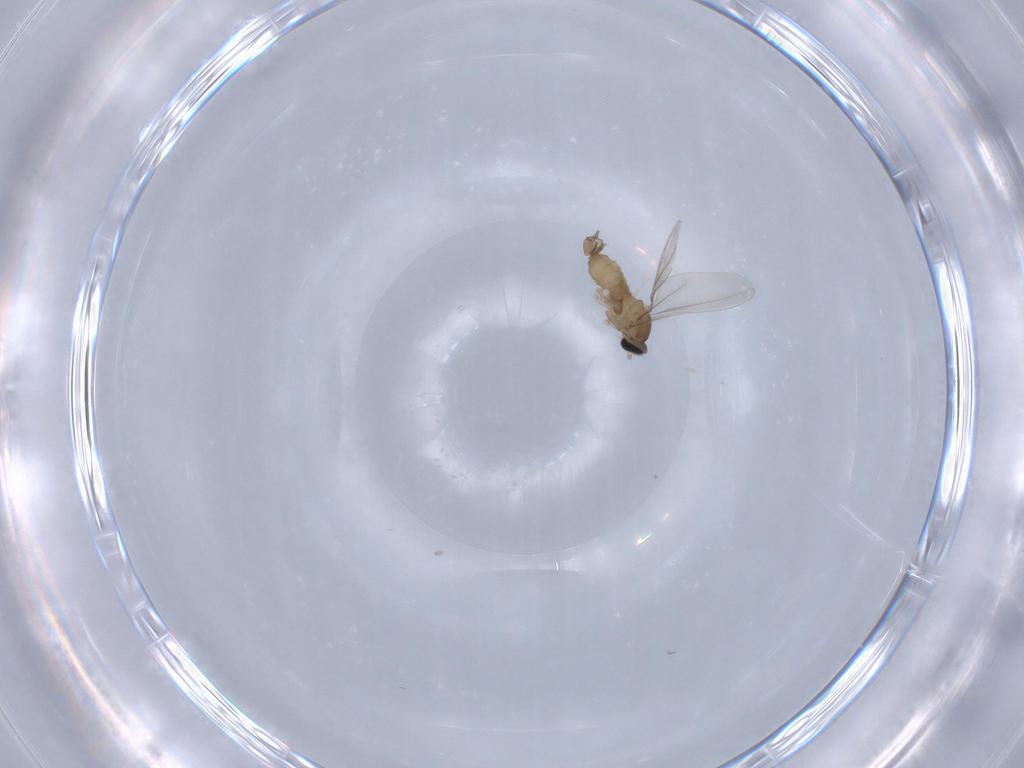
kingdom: Animalia
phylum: Arthropoda
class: Insecta
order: Diptera
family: Cecidomyiidae
